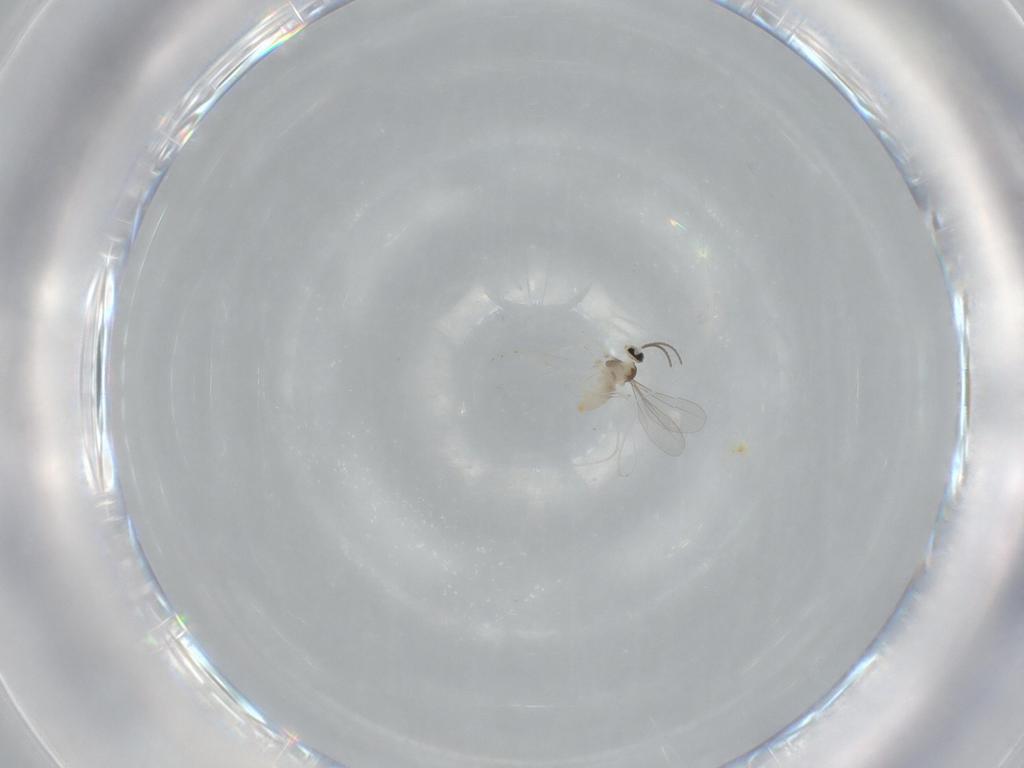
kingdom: Animalia
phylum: Arthropoda
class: Insecta
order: Diptera
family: Cecidomyiidae
